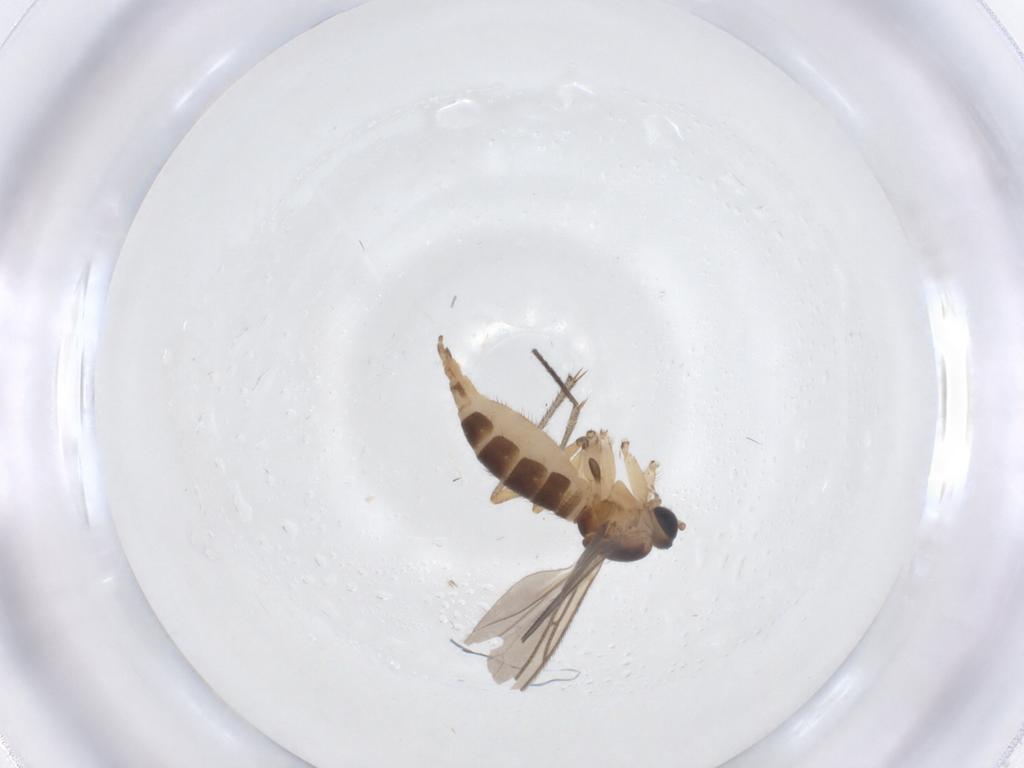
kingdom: Animalia
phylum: Arthropoda
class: Insecta
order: Diptera
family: Sciaridae
